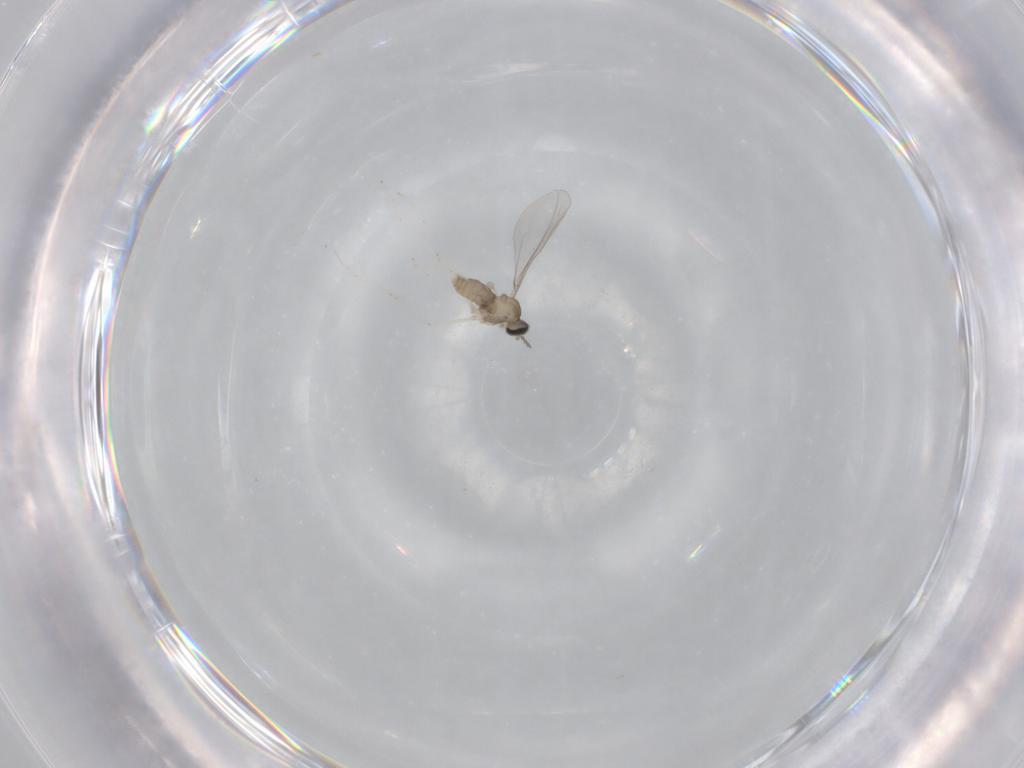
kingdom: Animalia
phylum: Arthropoda
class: Insecta
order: Diptera
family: Cecidomyiidae
